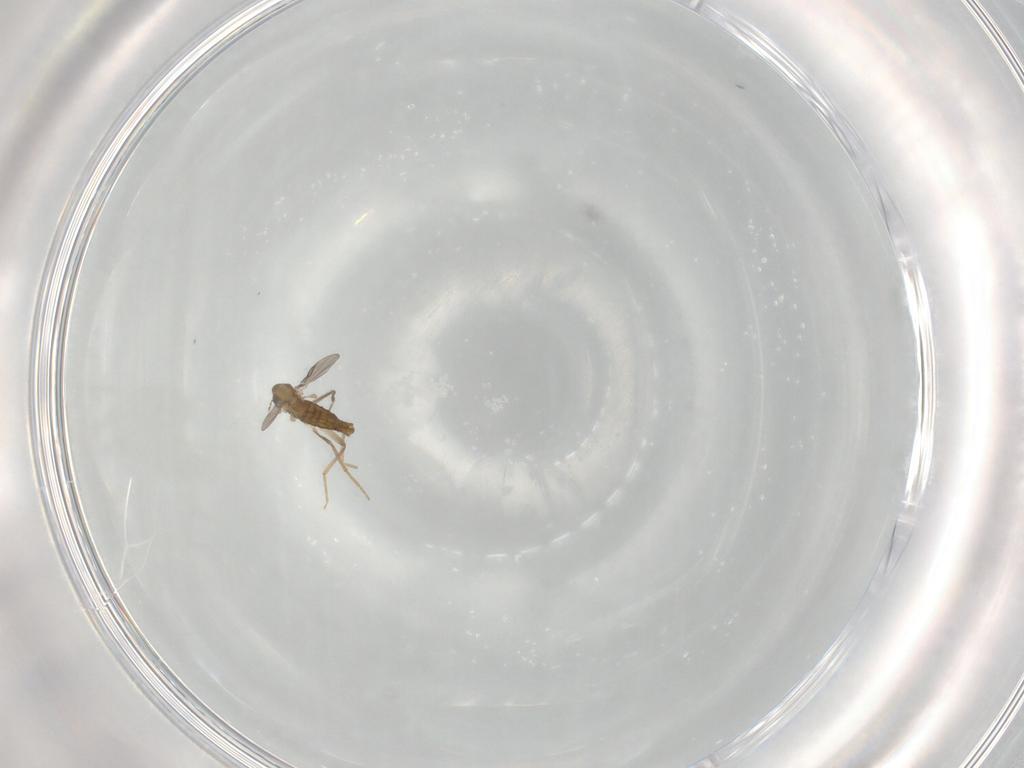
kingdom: Animalia
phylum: Arthropoda
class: Insecta
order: Diptera
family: Chironomidae
